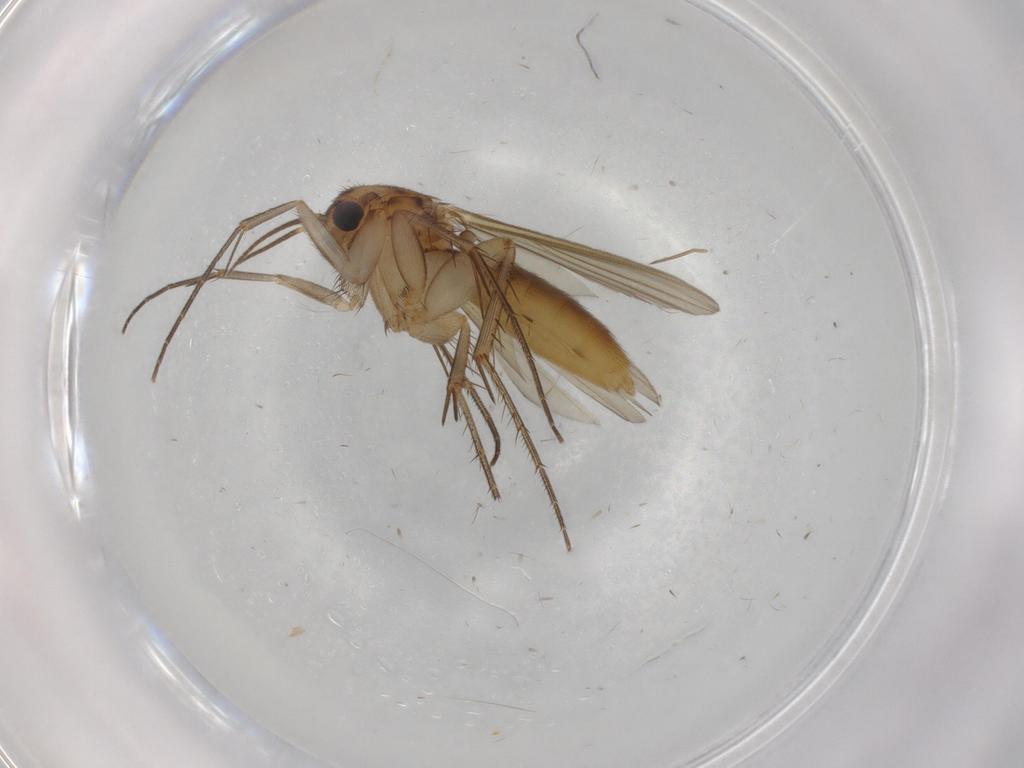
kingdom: Animalia
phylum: Arthropoda
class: Insecta
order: Diptera
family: Mycetophilidae
